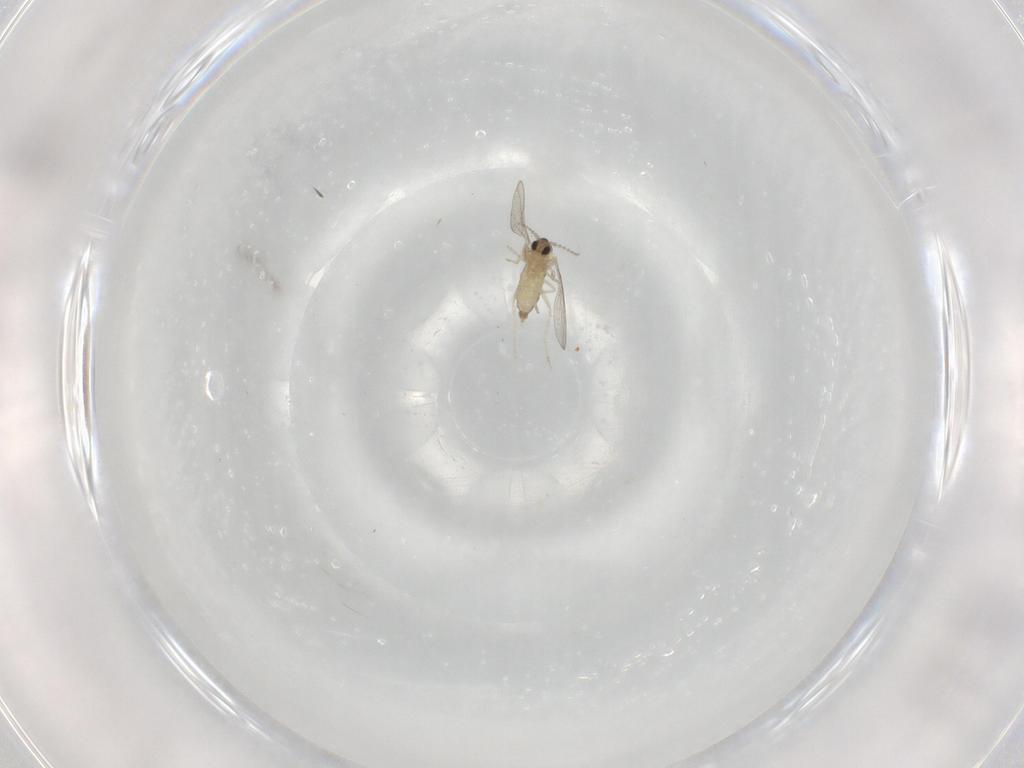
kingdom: Animalia
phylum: Arthropoda
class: Insecta
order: Diptera
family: Cecidomyiidae
